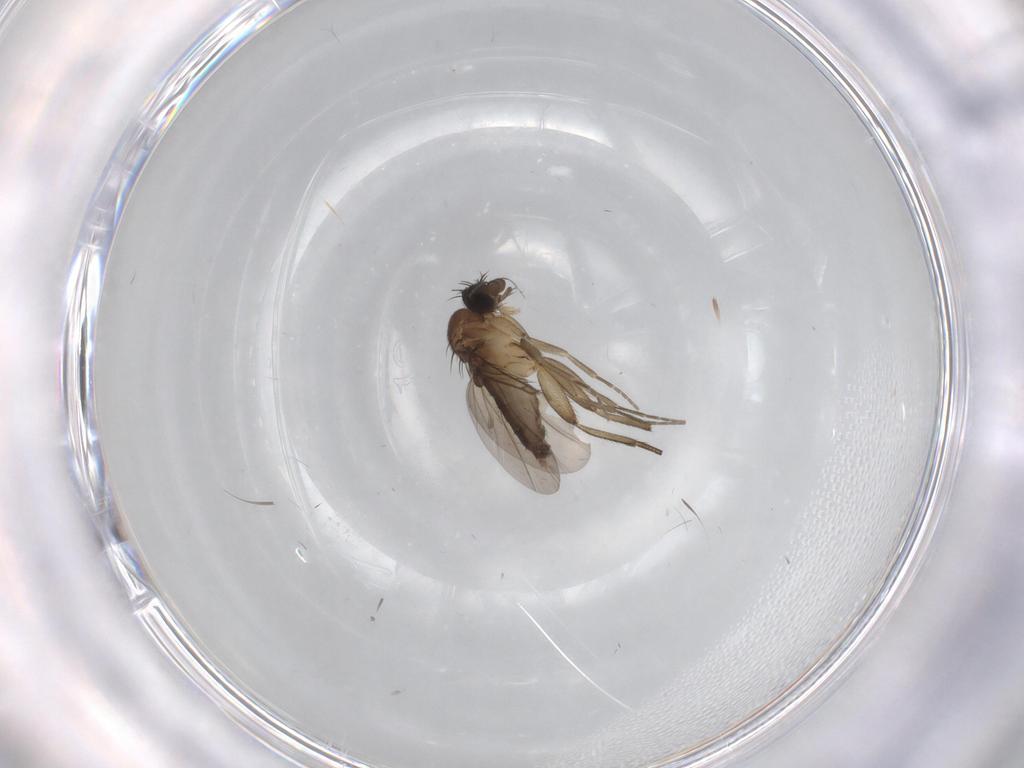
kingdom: Animalia
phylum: Arthropoda
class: Insecta
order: Diptera
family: Phoridae
